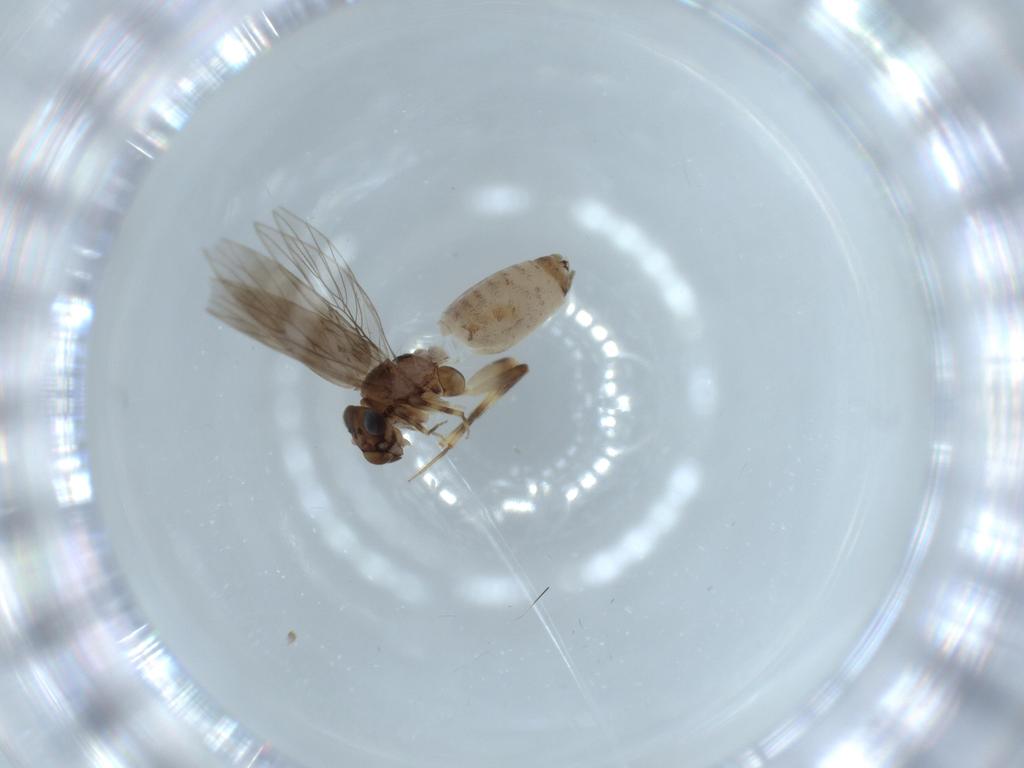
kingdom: Animalia
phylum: Arthropoda
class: Insecta
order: Psocodea
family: Lepidopsocidae
